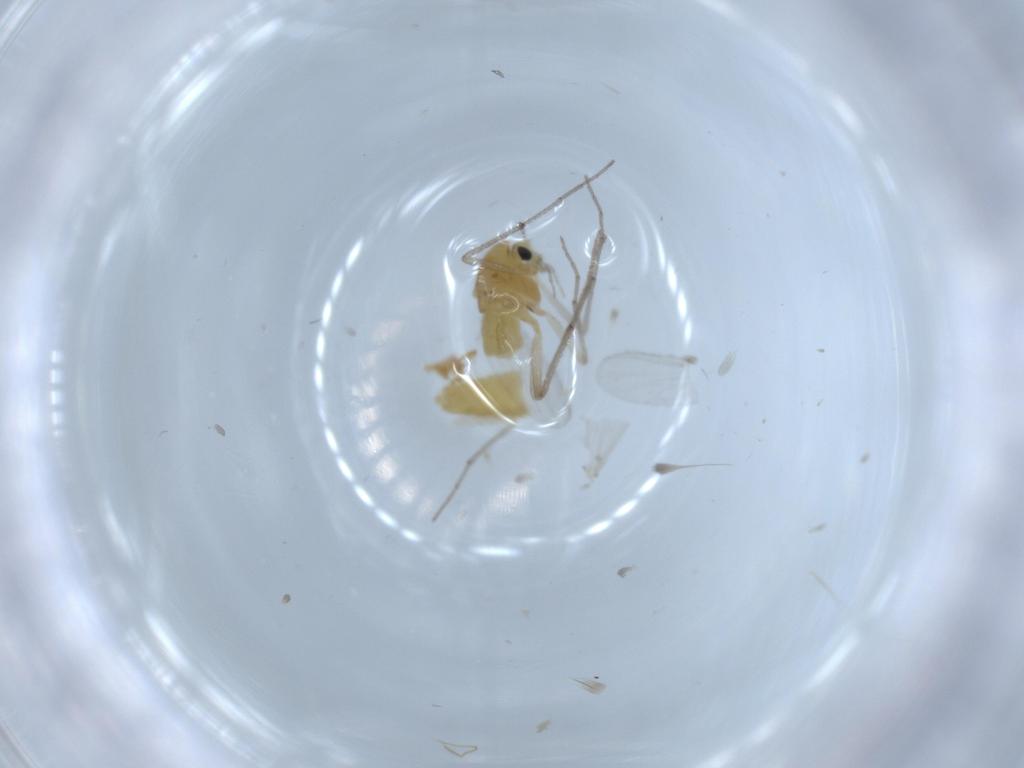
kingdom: Animalia
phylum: Arthropoda
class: Insecta
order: Diptera
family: Chironomidae
